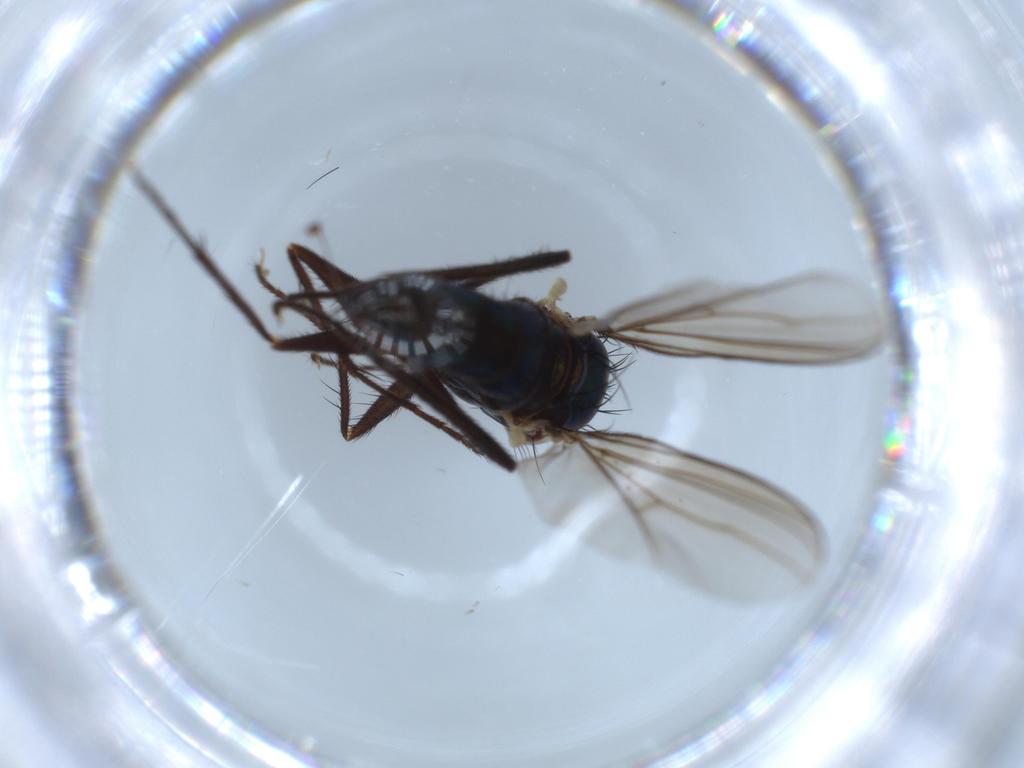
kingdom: Animalia
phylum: Arthropoda
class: Insecta
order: Diptera
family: Dolichopodidae
